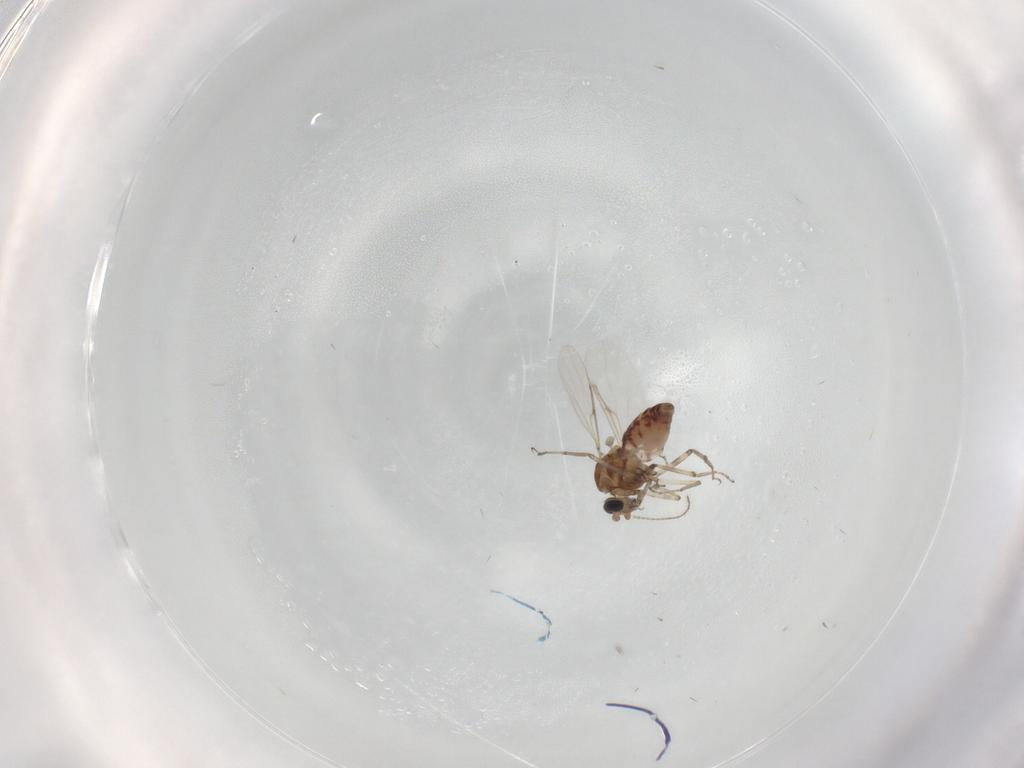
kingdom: Animalia
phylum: Arthropoda
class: Insecta
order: Diptera
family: Ceratopogonidae
